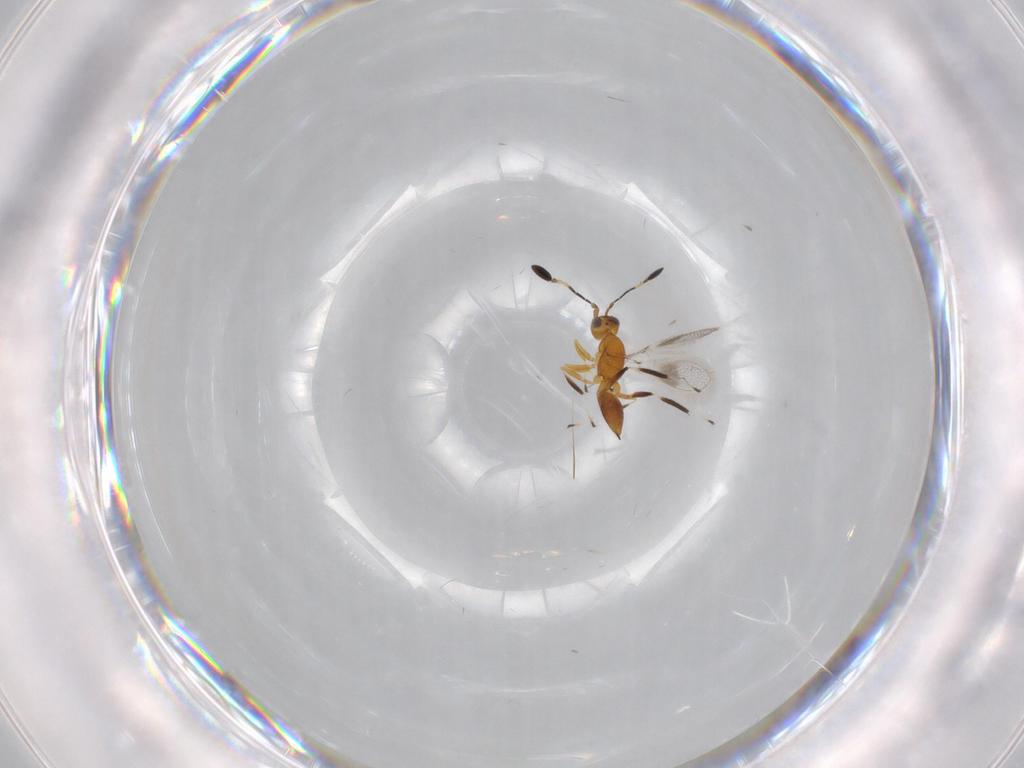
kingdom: Animalia
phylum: Arthropoda
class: Insecta
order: Hymenoptera
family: Mymaridae
